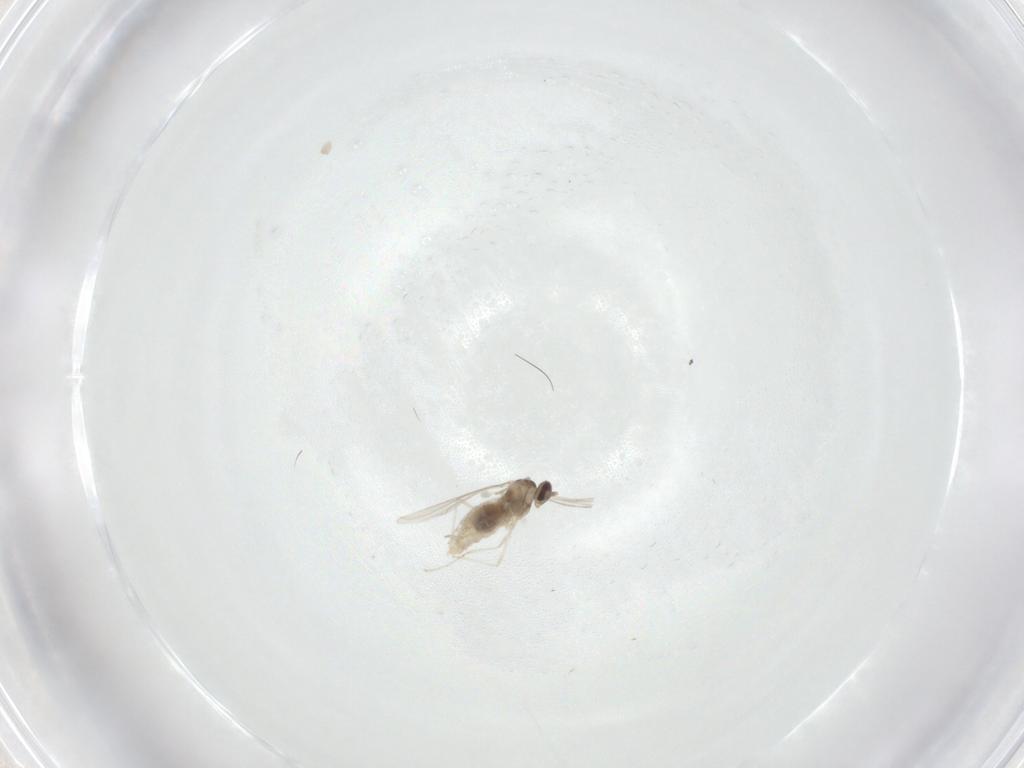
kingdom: Animalia
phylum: Arthropoda
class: Insecta
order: Diptera
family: Cecidomyiidae
